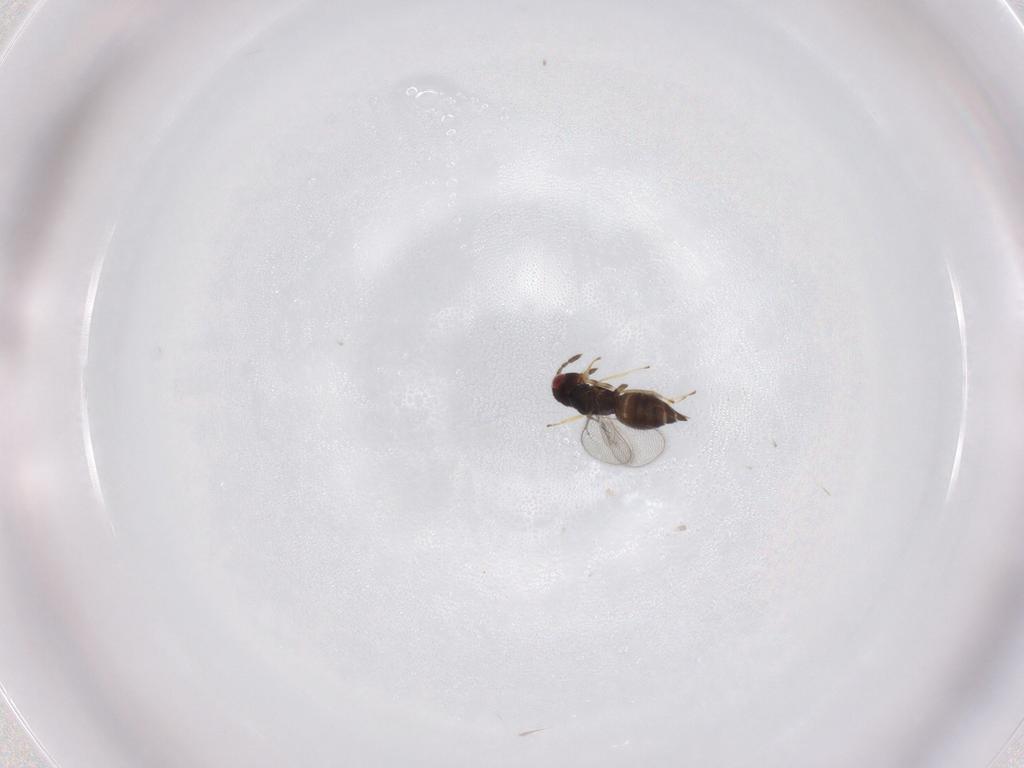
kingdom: Animalia
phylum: Arthropoda
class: Insecta
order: Hymenoptera
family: Eulophidae
